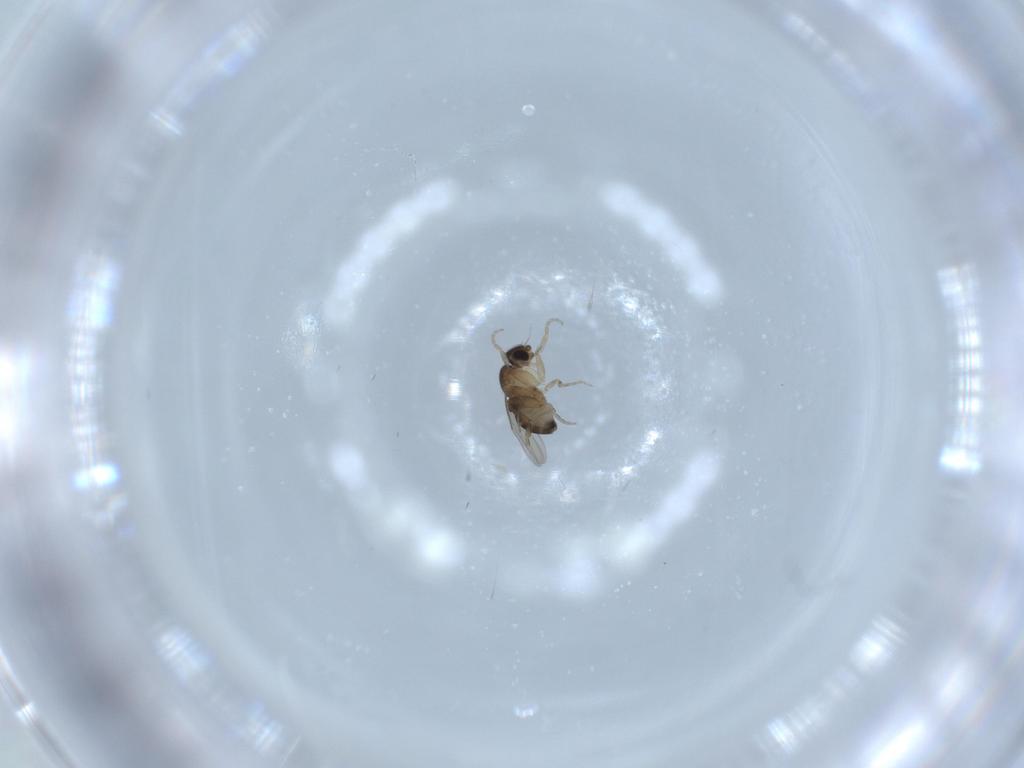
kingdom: Animalia
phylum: Arthropoda
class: Insecta
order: Diptera
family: Phoridae
